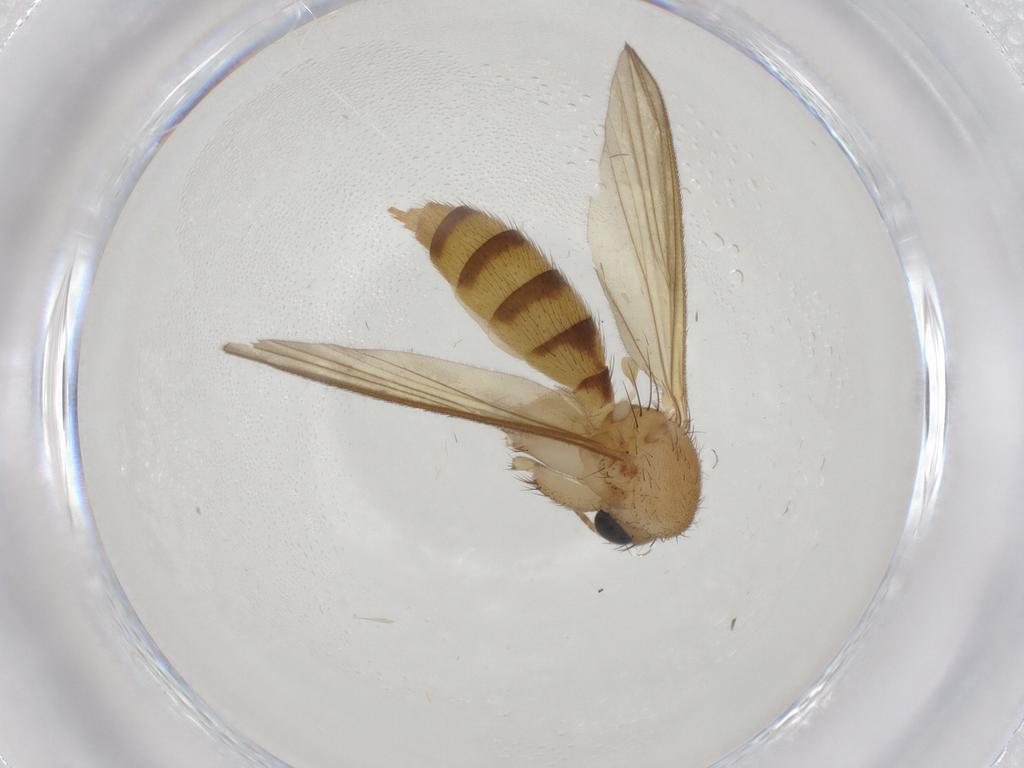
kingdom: Animalia
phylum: Arthropoda
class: Insecta
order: Diptera
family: Mycetophilidae
